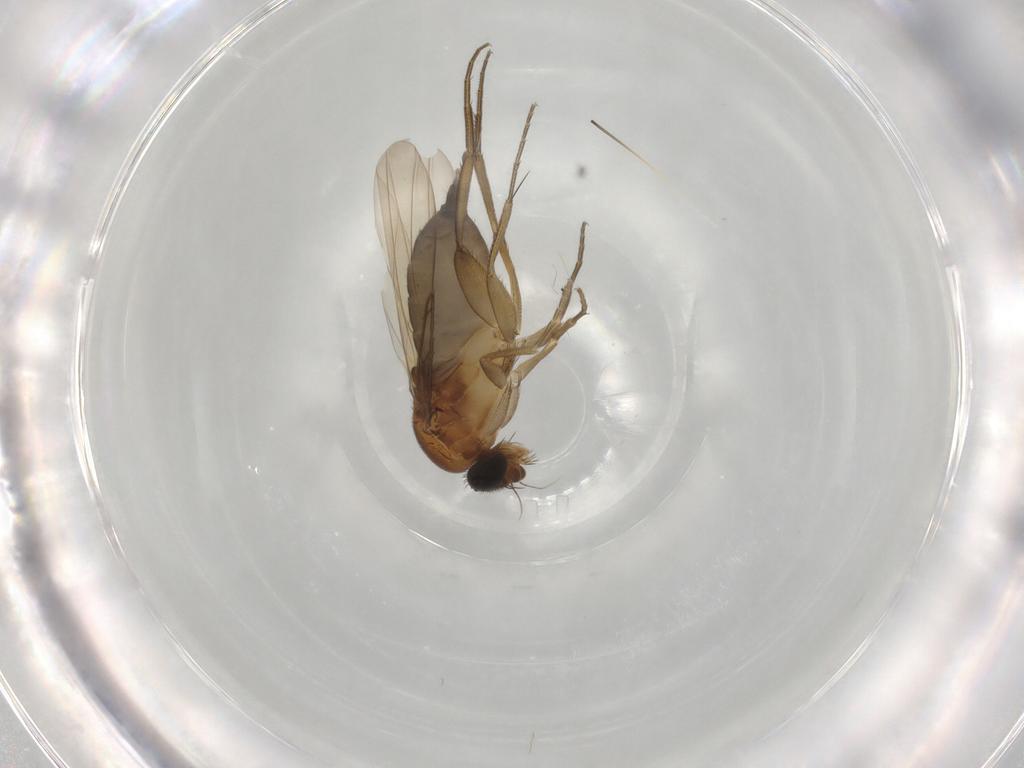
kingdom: Animalia
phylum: Arthropoda
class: Insecta
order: Diptera
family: Phoridae
